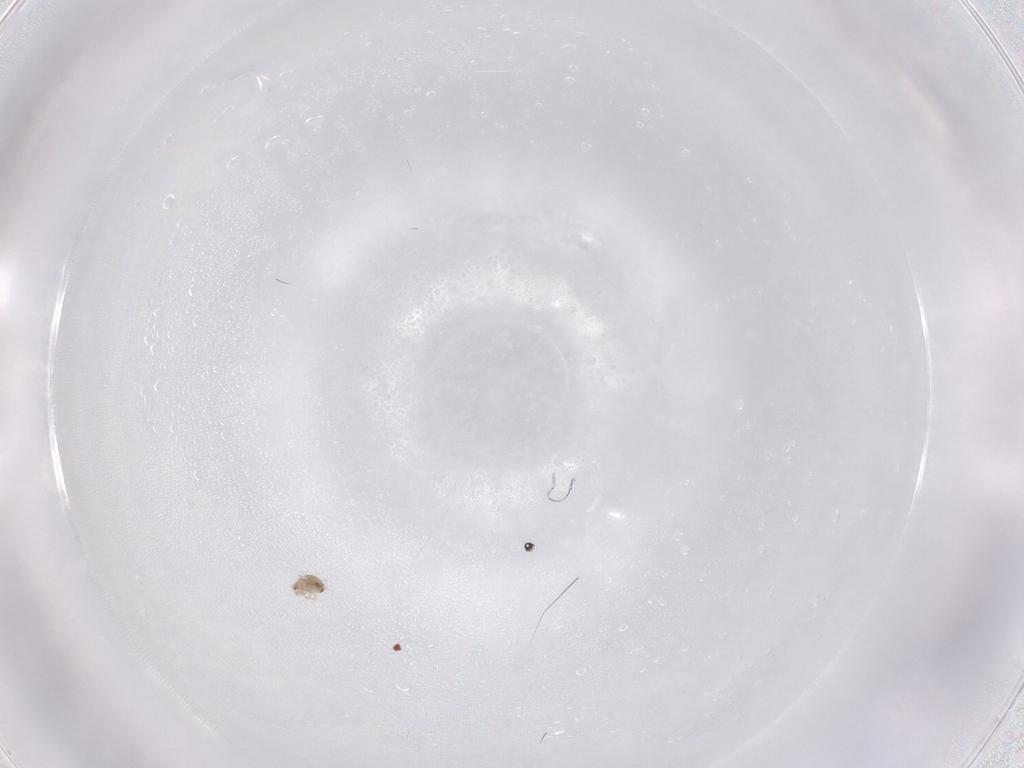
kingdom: Animalia
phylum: Arthropoda
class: Arachnida
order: Sarcoptiformes
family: Humerobatidae
